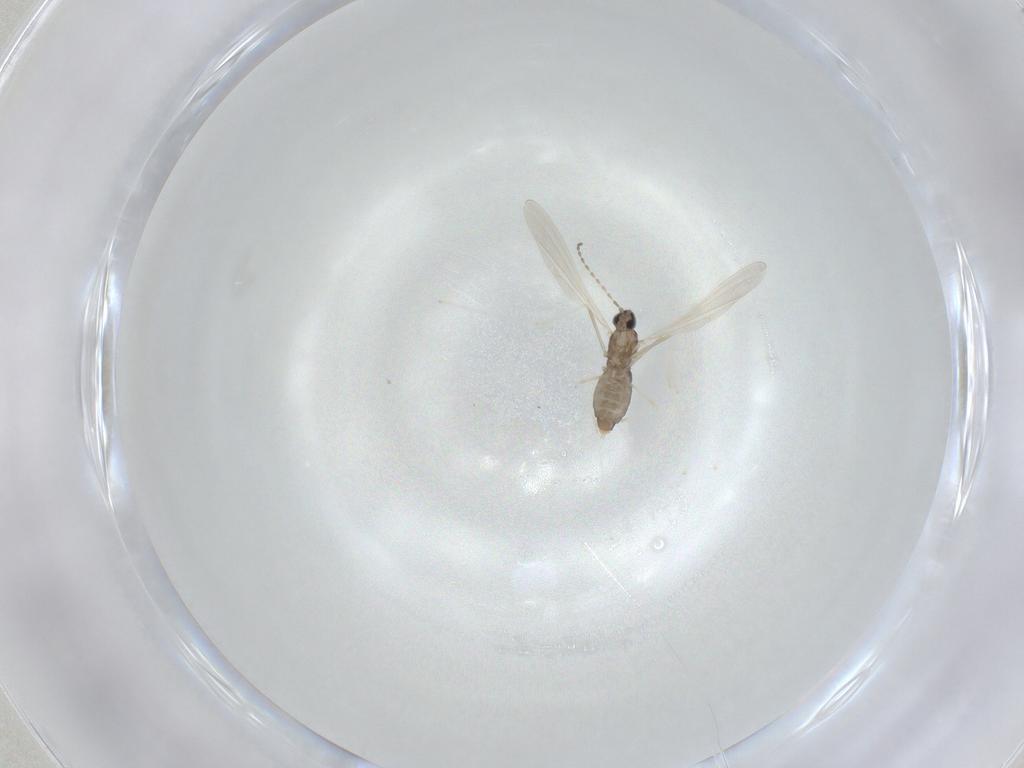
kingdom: Animalia
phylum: Arthropoda
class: Insecta
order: Diptera
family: Cecidomyiidae
